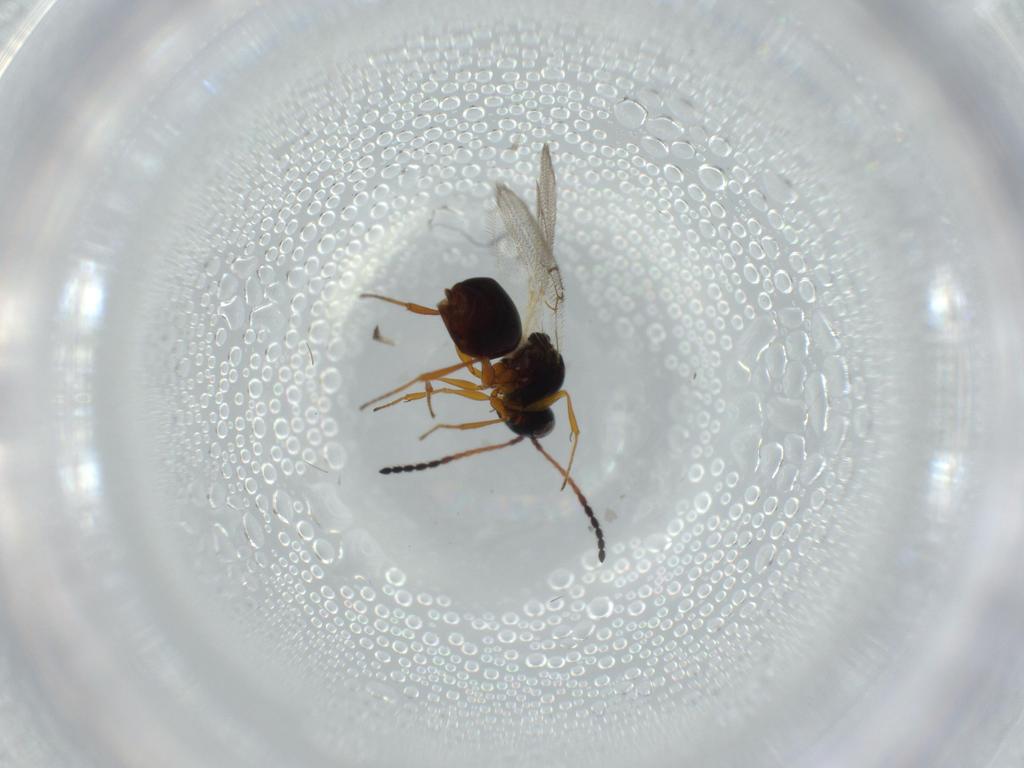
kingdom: Animalia
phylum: Arthropoda
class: Insecta
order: Hymenoptera
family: Figitidae
